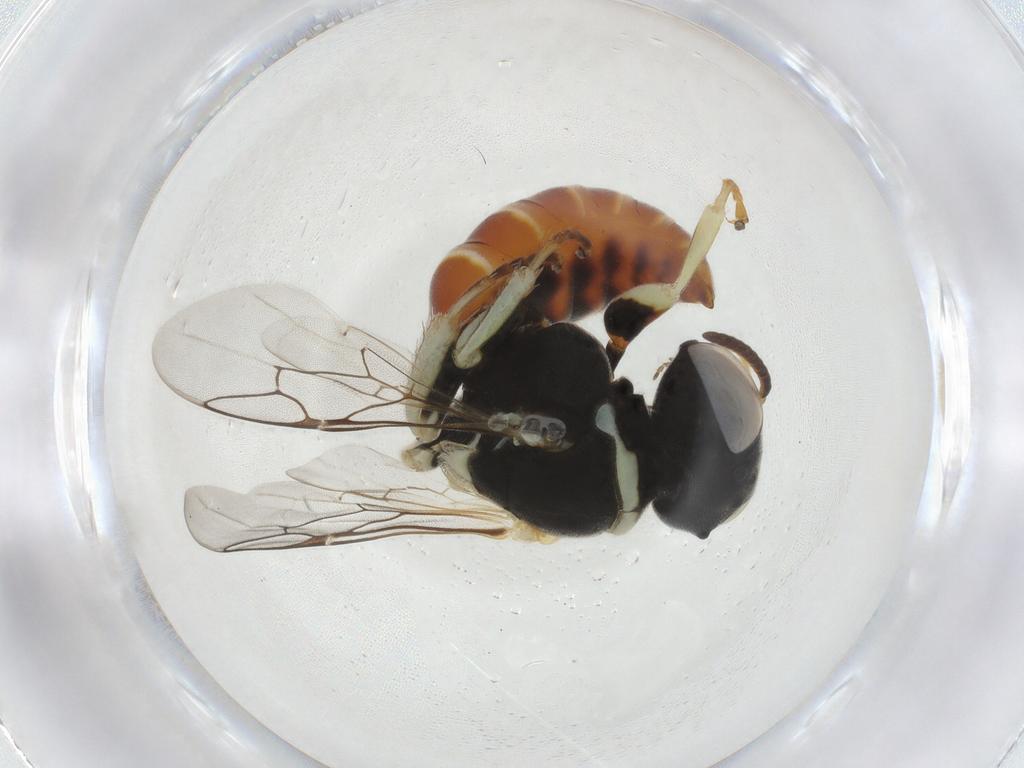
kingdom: Animalia
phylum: Arthropoda
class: Insecta
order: Hymenoptera
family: Crabronidae
